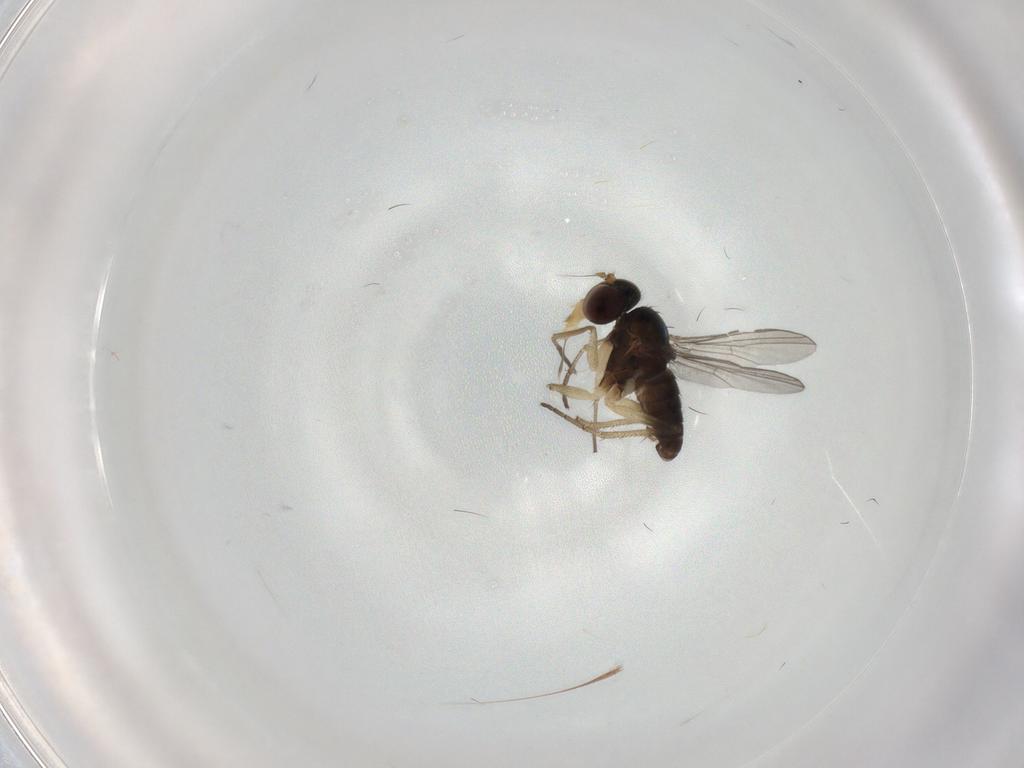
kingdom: Animalia
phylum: Arthropoda
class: Insecta
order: Diptera
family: Dolichopodidae
